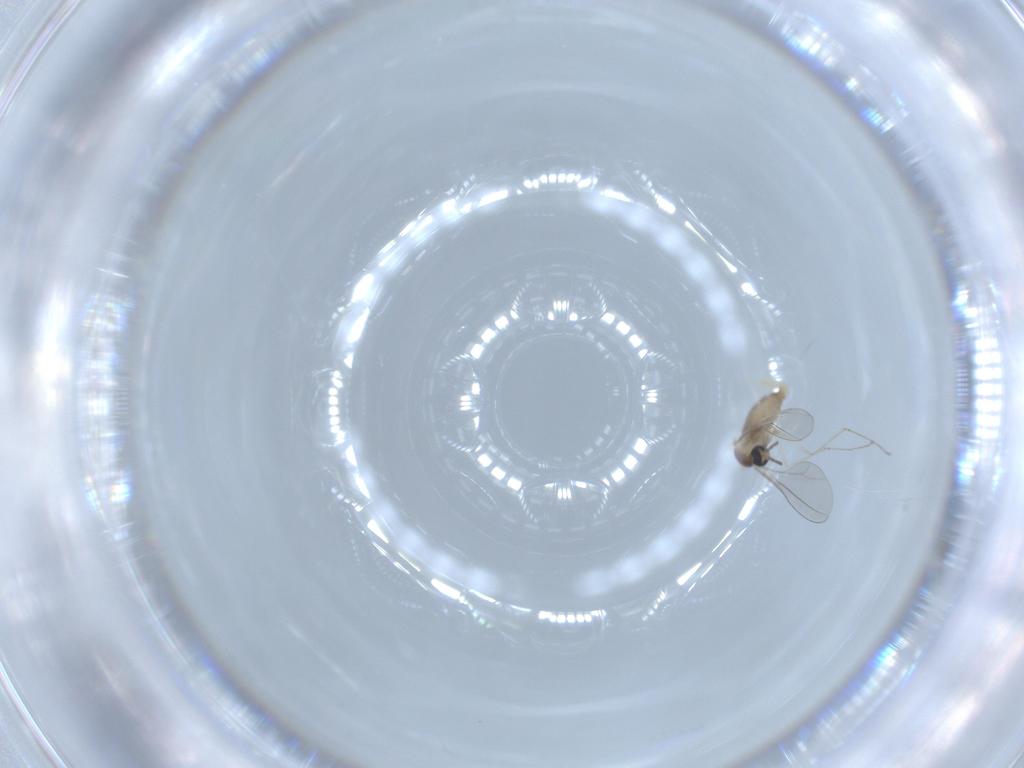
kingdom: Animalia
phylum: Arthropoda
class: Insecta
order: Diptera
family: Cecidomyiidae
